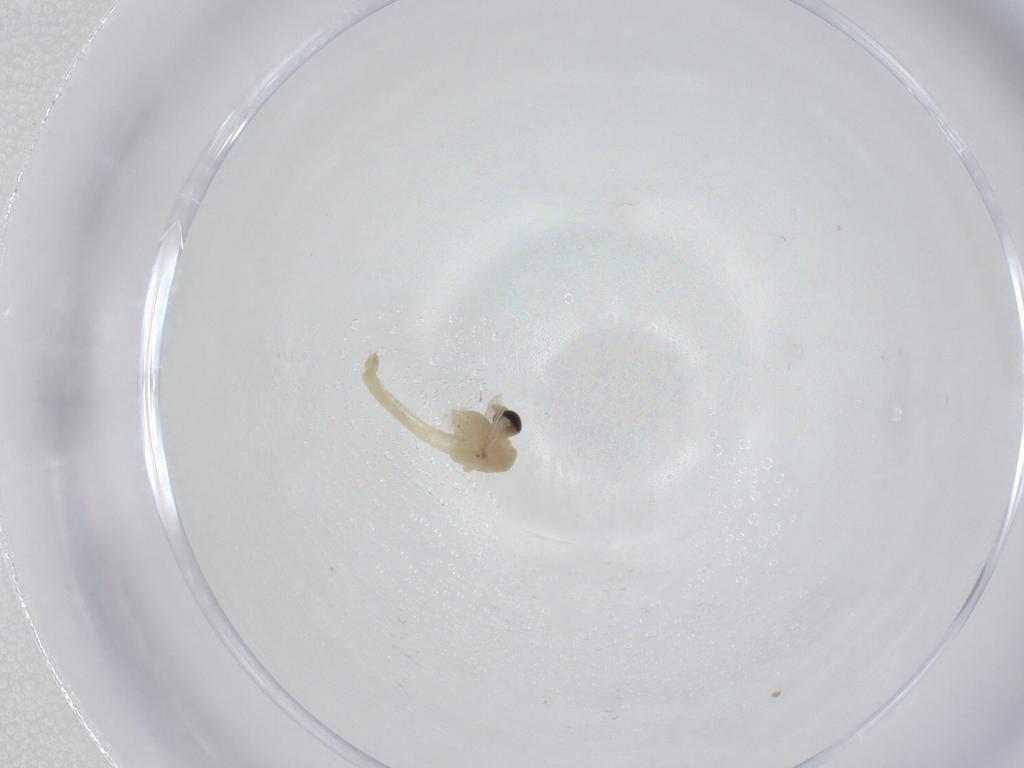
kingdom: Animalia
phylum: Arthropoda
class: Insecta
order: Diptera
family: Chironomidae
